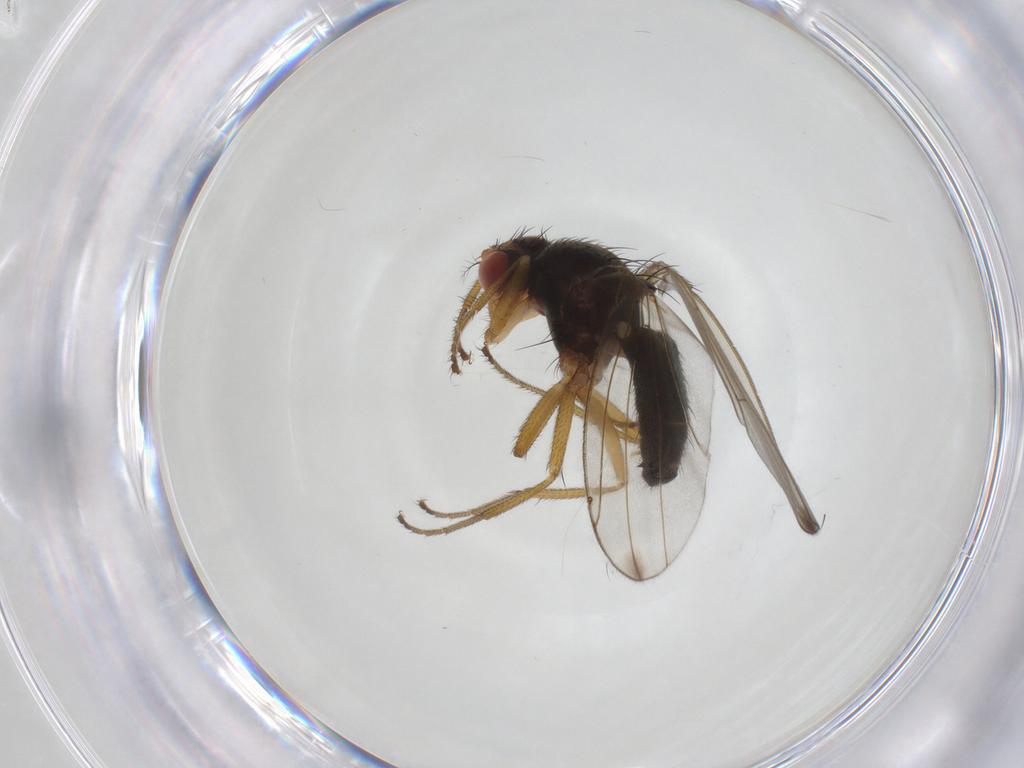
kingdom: Animalia
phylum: Arthropoda
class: Insecta
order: Diptera
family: Drosophilidae
